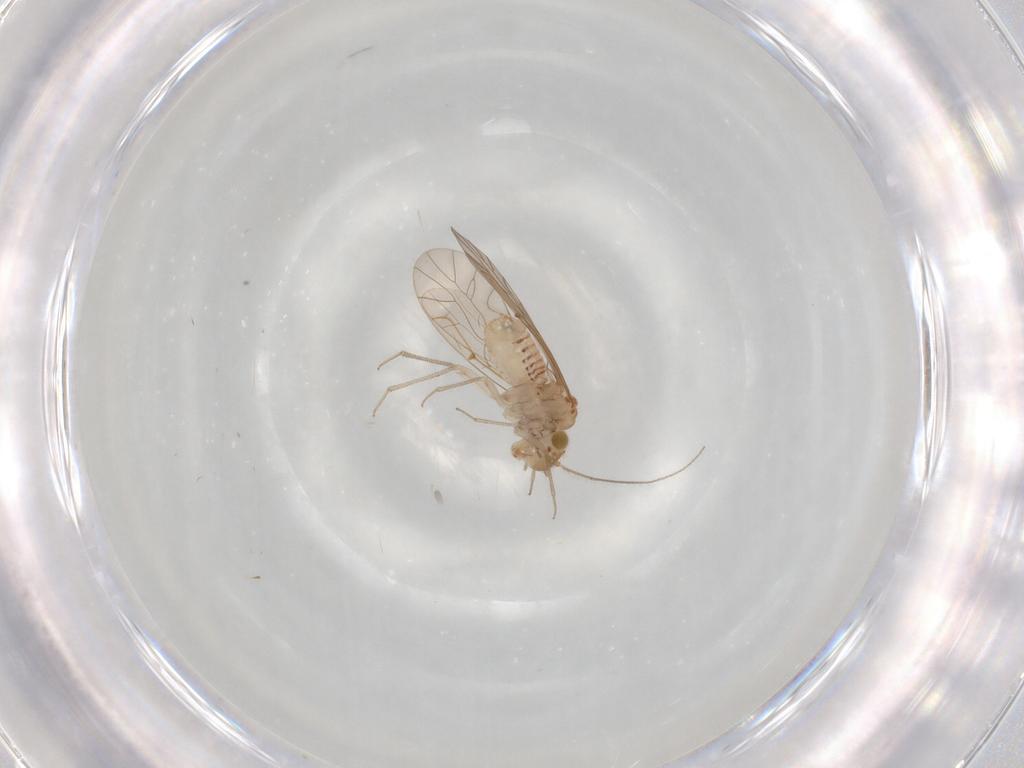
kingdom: Animalia
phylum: Arthropoda
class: Insecta
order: Psocodea
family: Lachesillidae
